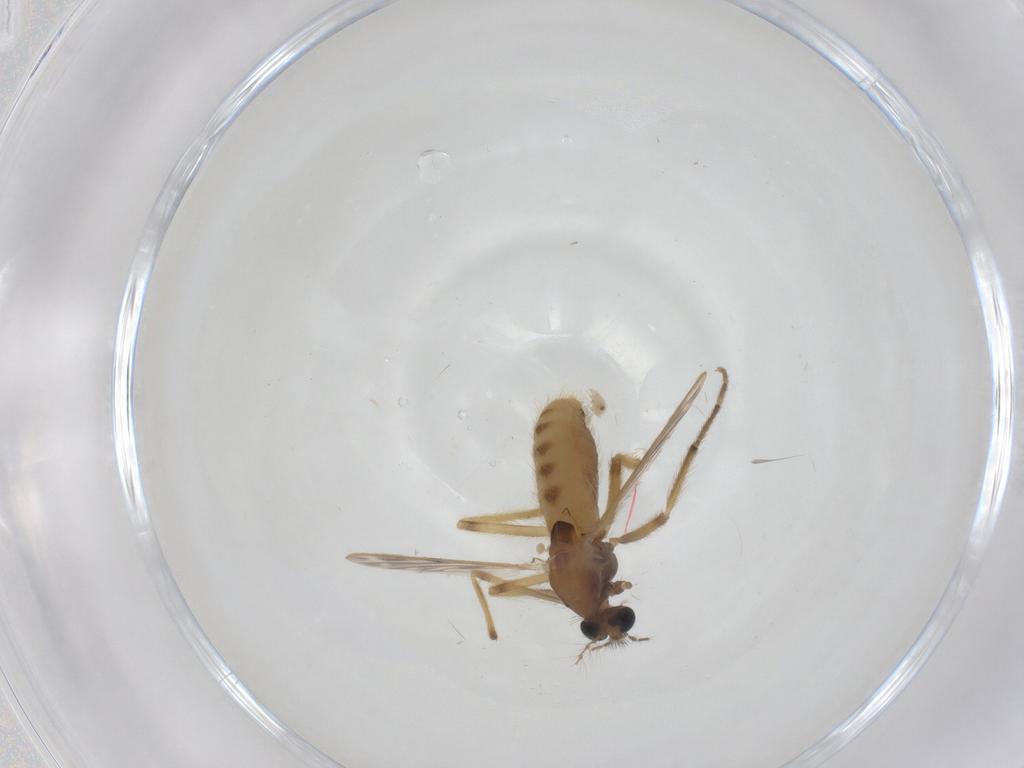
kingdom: Animalia
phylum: Arthropoda
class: Insecta
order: Diptera
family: Chironomidae
